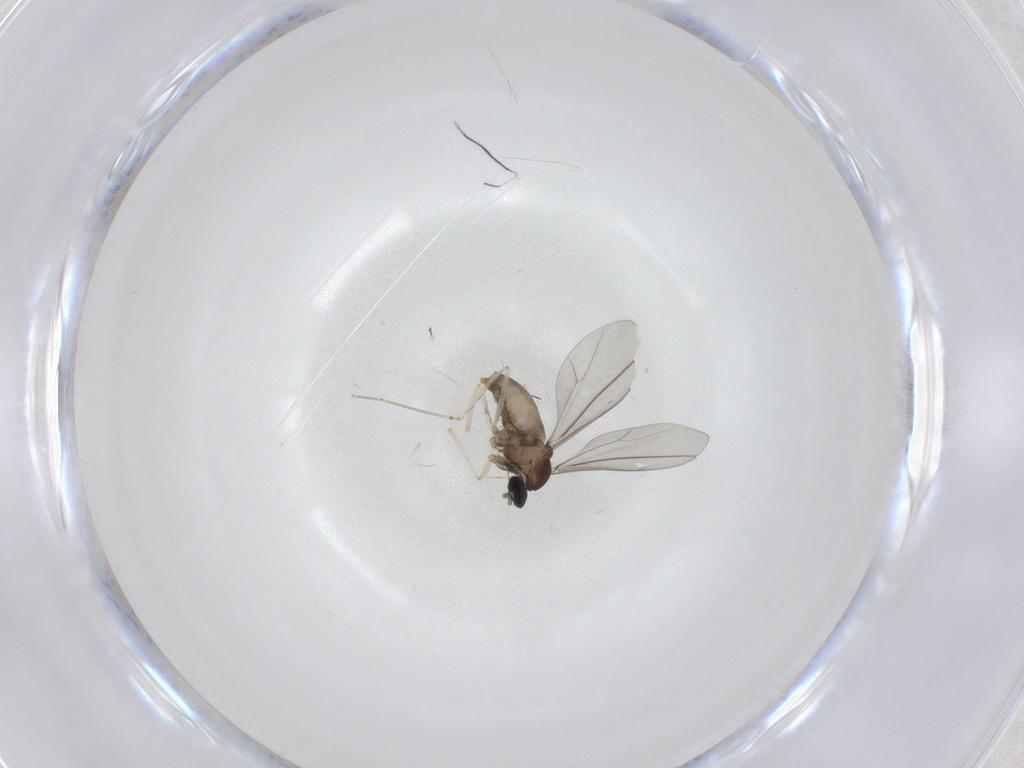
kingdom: Animalia
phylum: Arthropoda
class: Insecta
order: Diptera
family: Cecidomyiidae
